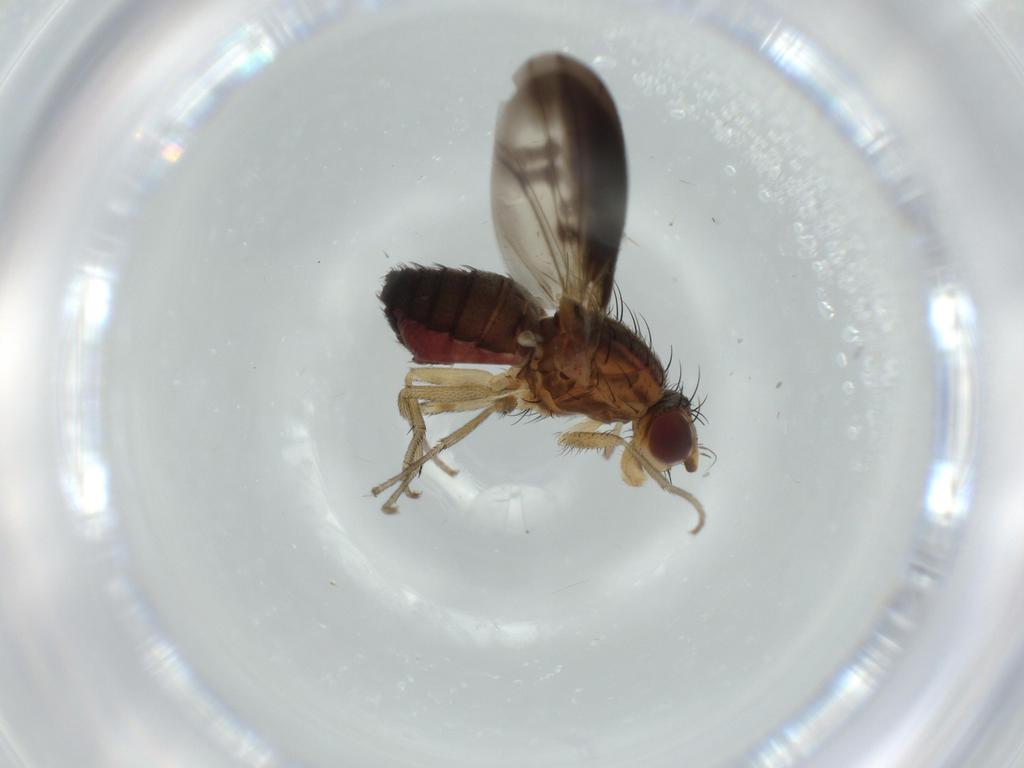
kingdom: Animalia
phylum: Arthropoda
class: Insecta
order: Diptera
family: Heleomyzidae
